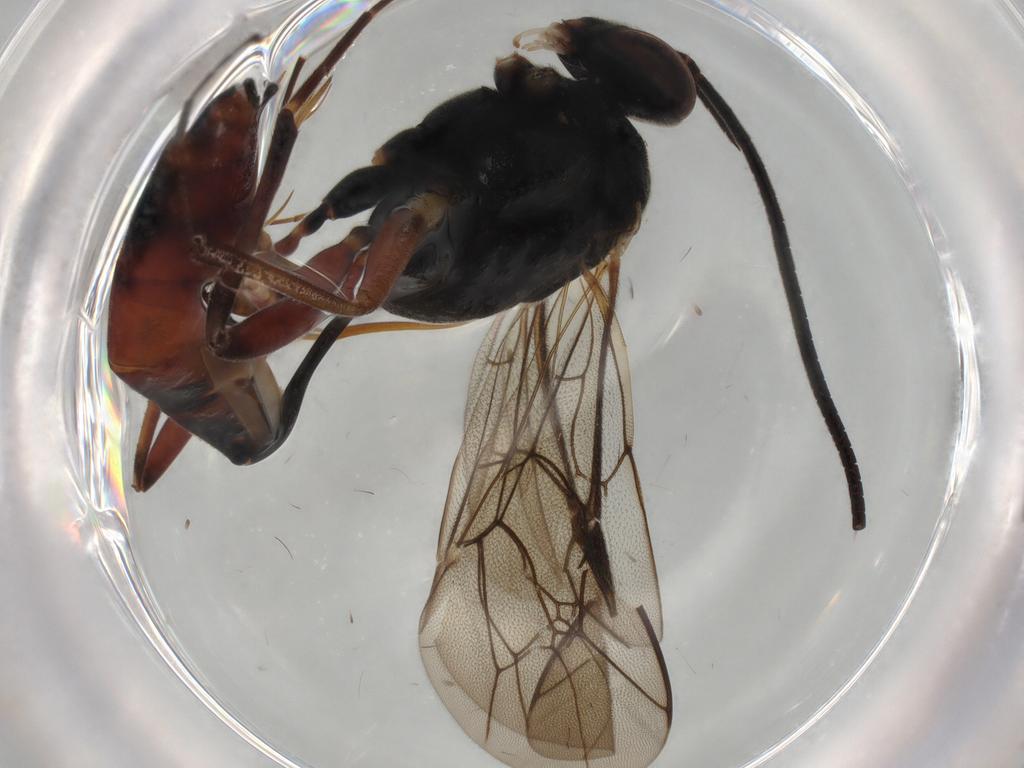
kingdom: Animalia
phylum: Arthropoda
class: Insecta
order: Hymenoptera
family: Ichneumonidae
